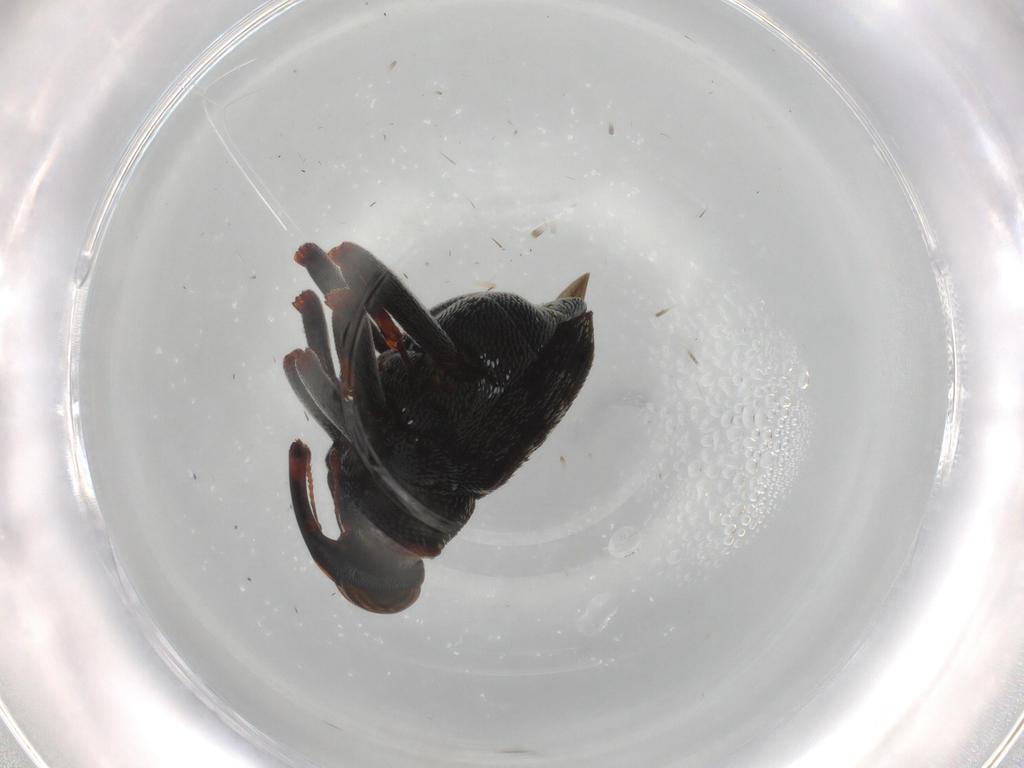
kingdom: Animalia
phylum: Arthropoda
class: Insecta
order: Coleoptera
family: Curculionidae
